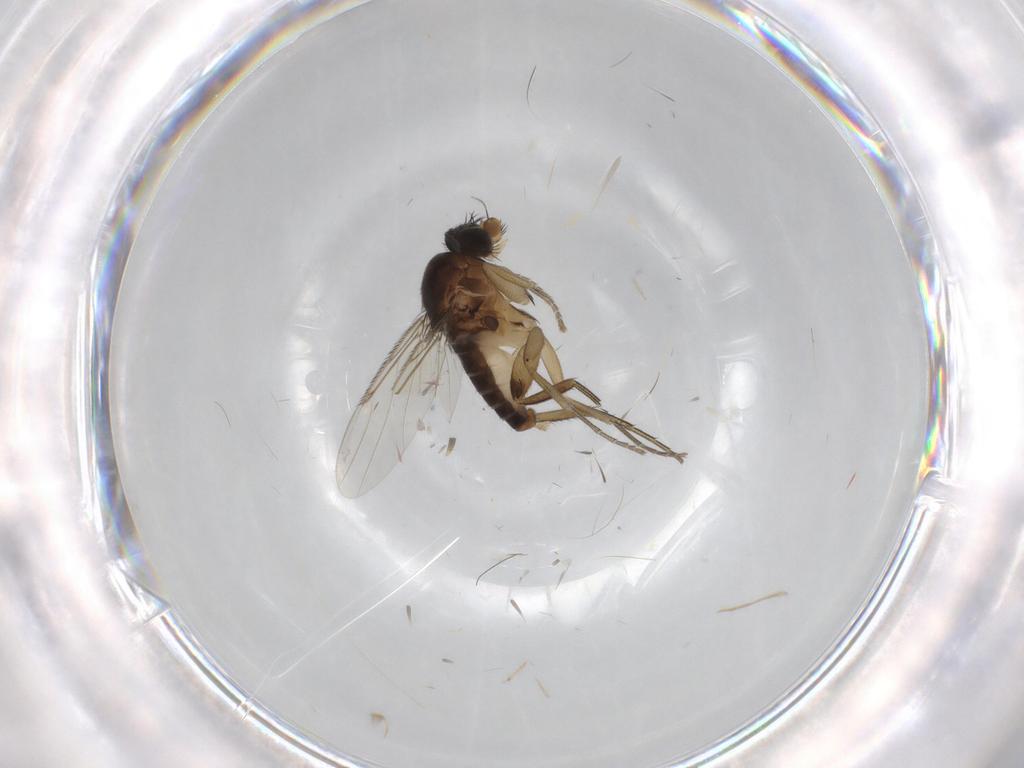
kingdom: Animalia
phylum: Arthropoda
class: Insecta
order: Diptera
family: Phoridae
